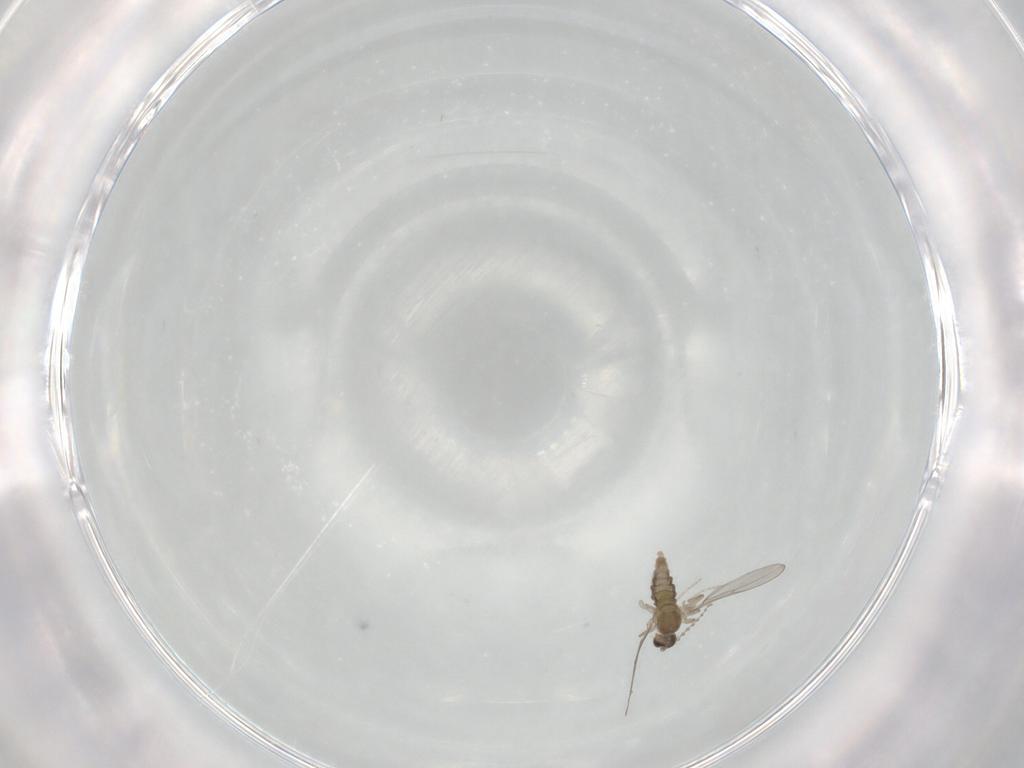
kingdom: Animalia
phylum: Arthropoda
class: Insecta
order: Diptera
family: Cecidomyiidae
